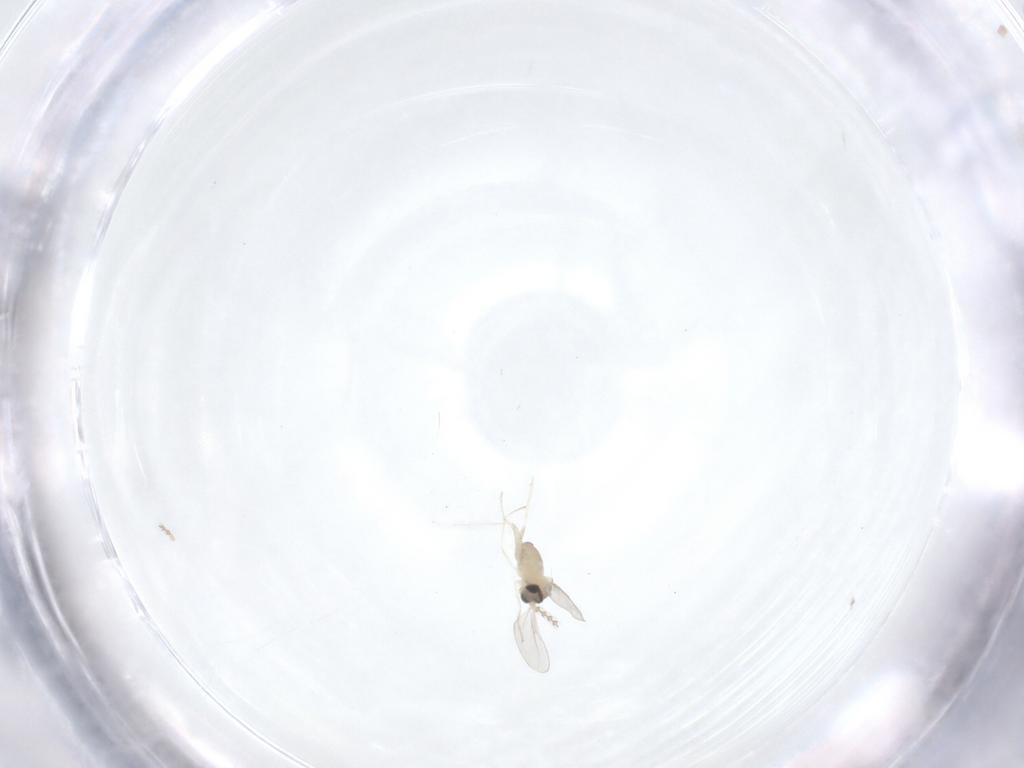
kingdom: Animalia
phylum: Arthropoda
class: Insecta
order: Diptera
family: Cecidomyiidae
